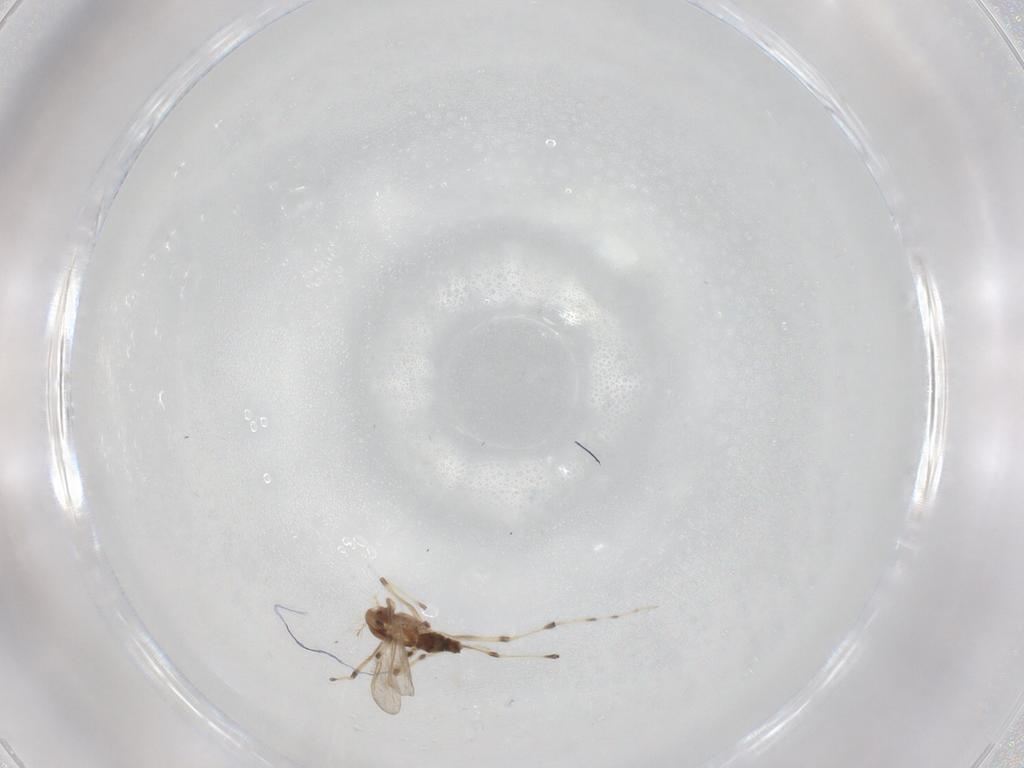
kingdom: Animalia
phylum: Arthropoda
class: Insecta
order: Diptera
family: Chironomidae
